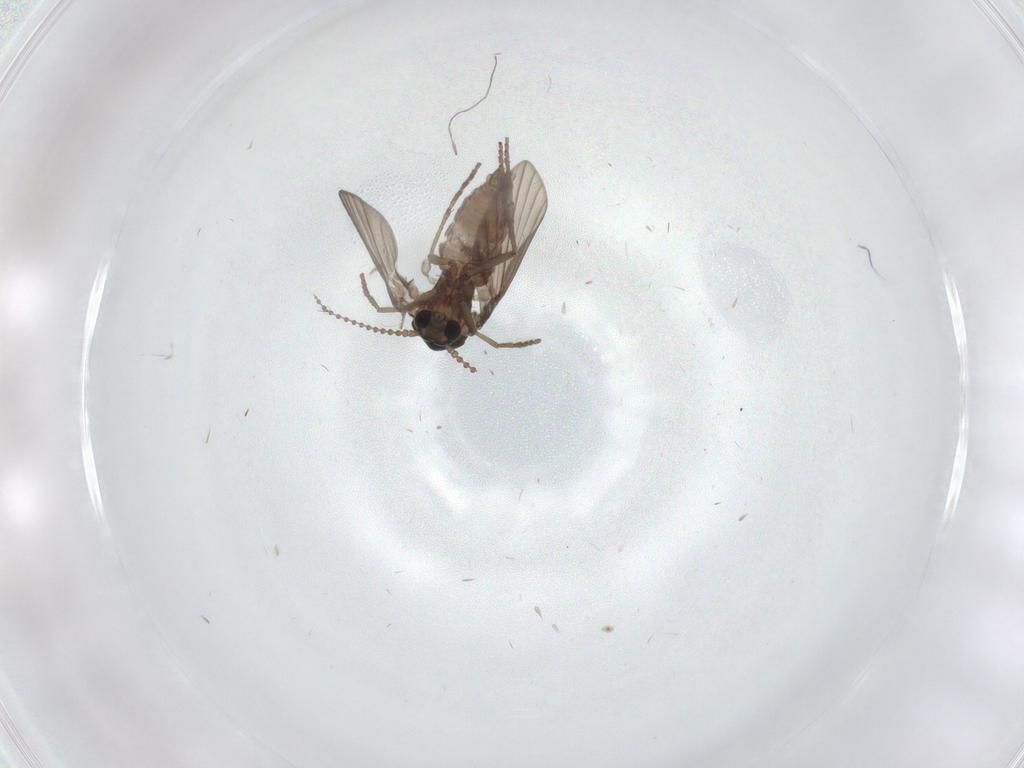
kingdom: Animalia
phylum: Arthropoda
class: Insecta
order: Diptera
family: Psychodidae
